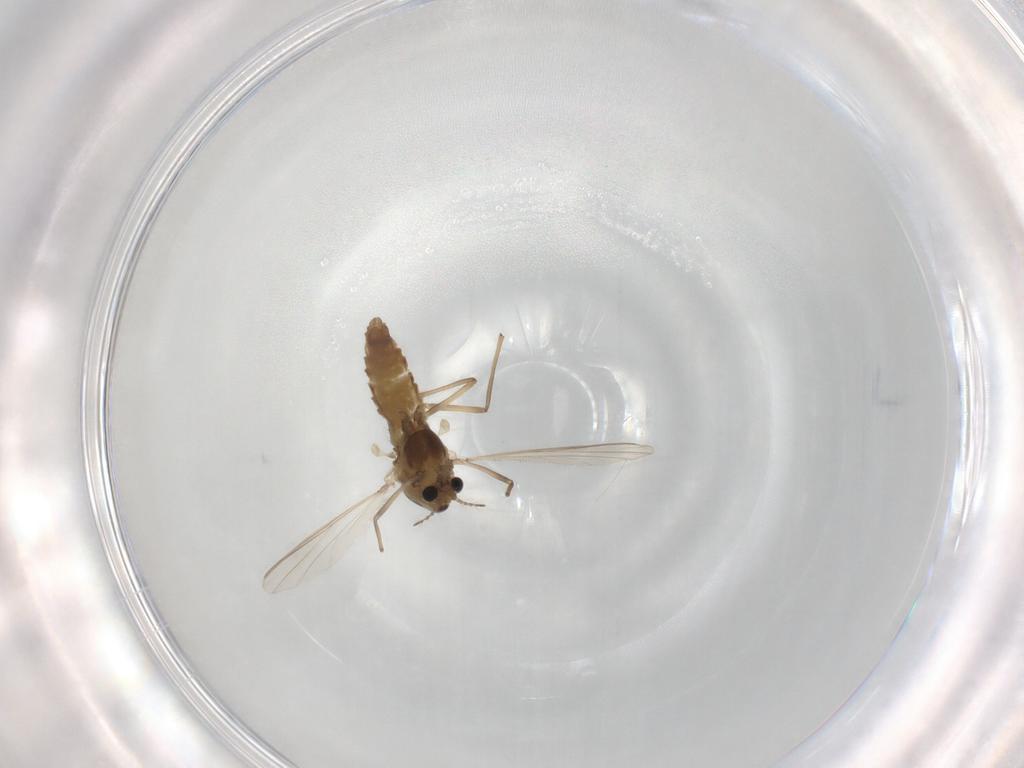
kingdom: Animalia
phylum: Arthropoda
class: Insecta
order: Diptera
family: Chironomidae
